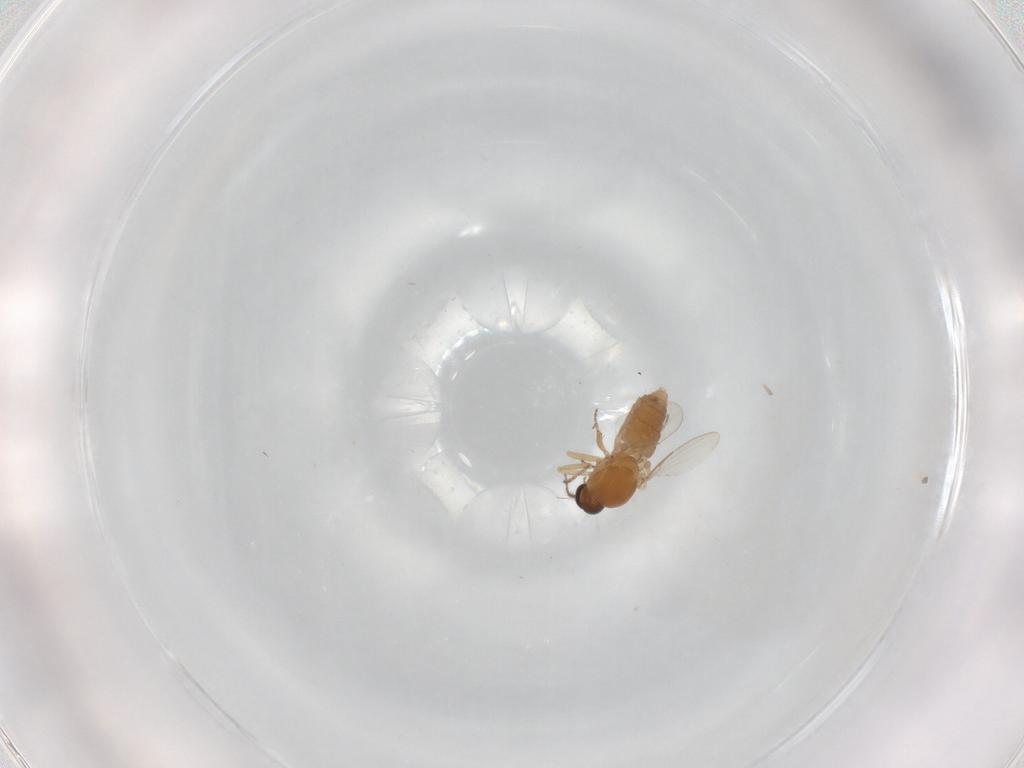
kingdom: Animalia
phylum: Arthropoda
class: Insecta
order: Diptera
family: Ceratopogonidae
